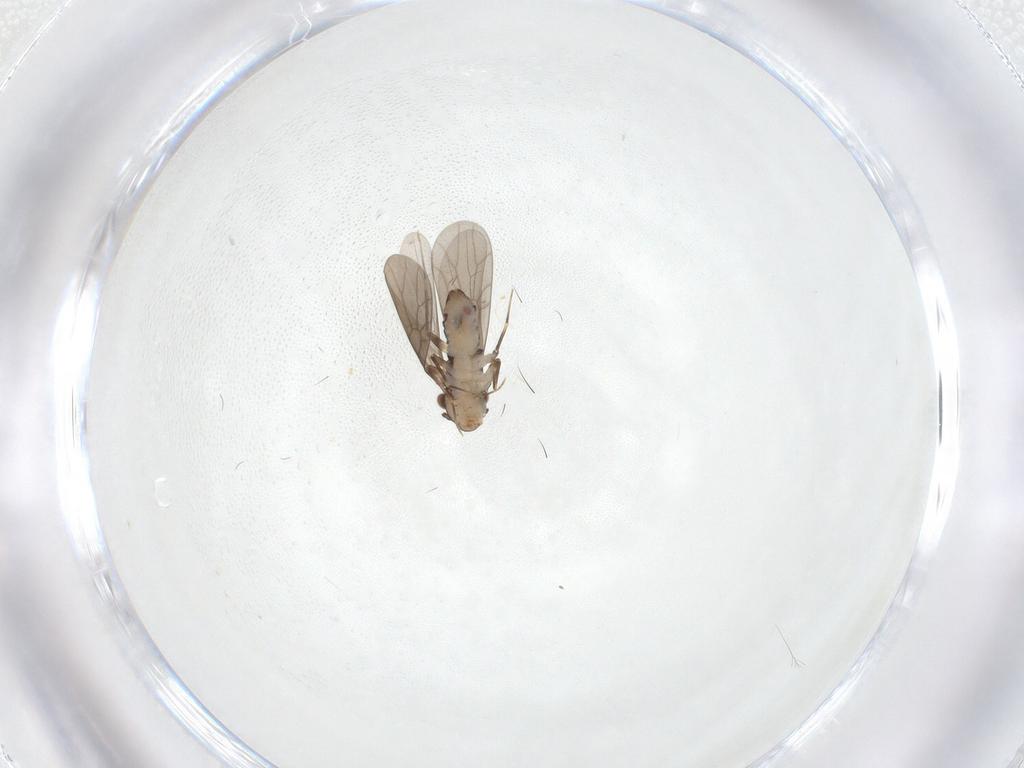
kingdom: Animalia
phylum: Arthropoda
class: Insecta
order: Psocodea
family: Lepidopsocidae
